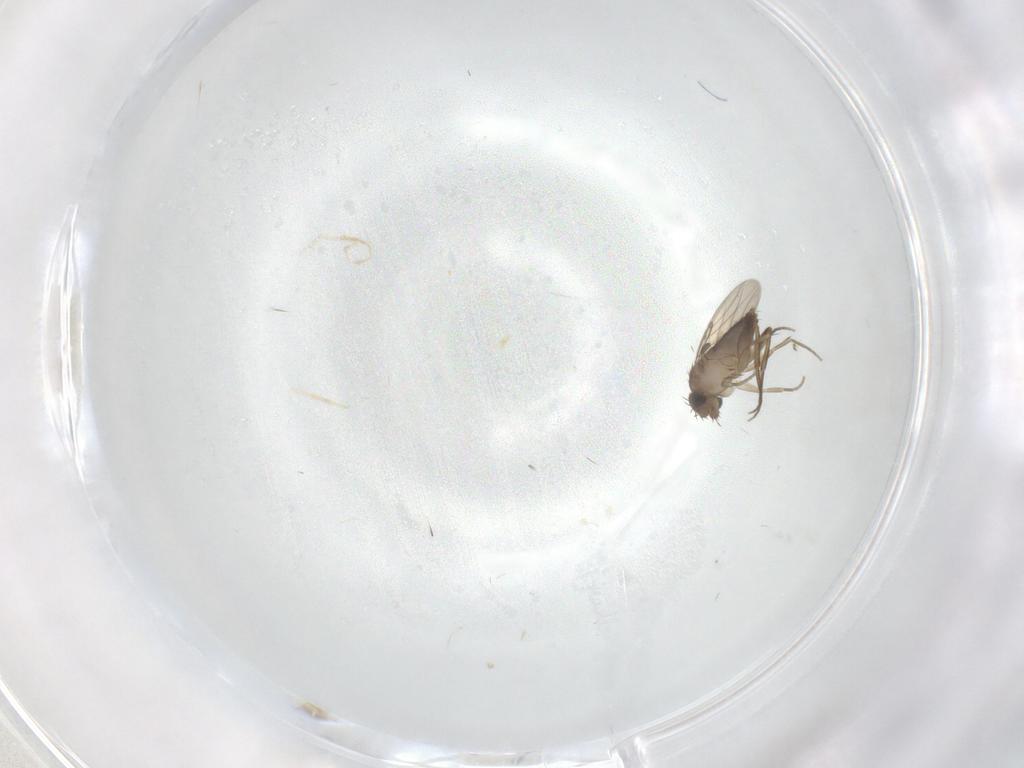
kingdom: Animalia
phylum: Arthropoda
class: Insecta
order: Diptera
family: Phoridae
